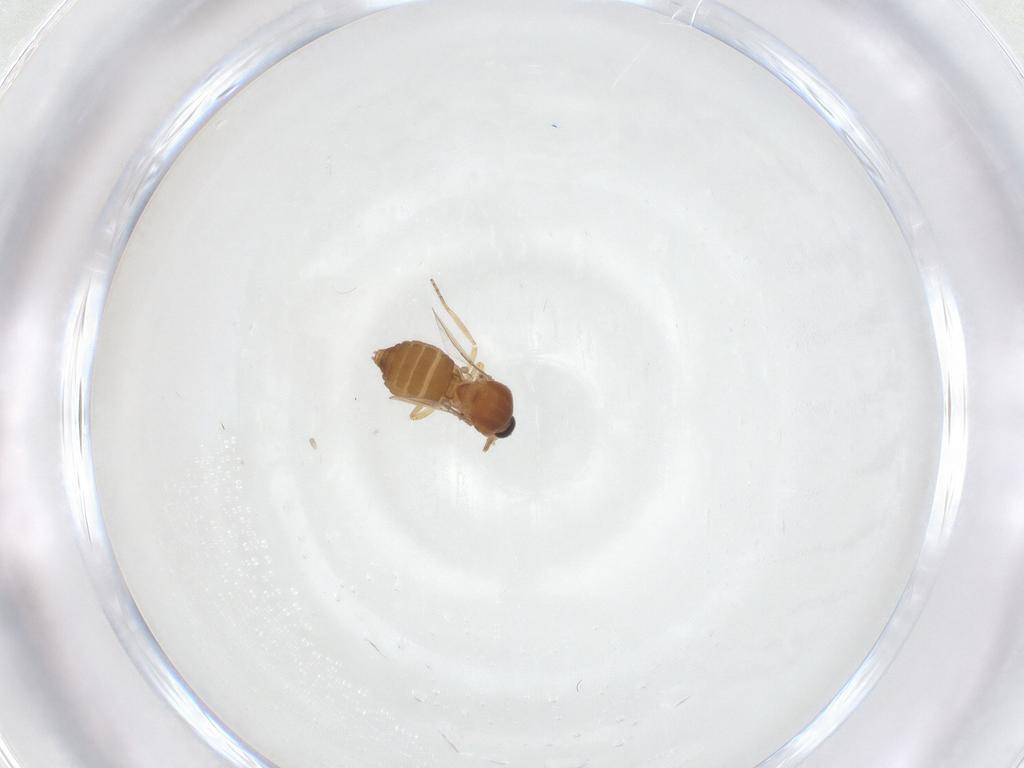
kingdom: Animalia
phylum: Arthropoda
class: Insecta
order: Diptera
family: Ceratopogonidae
